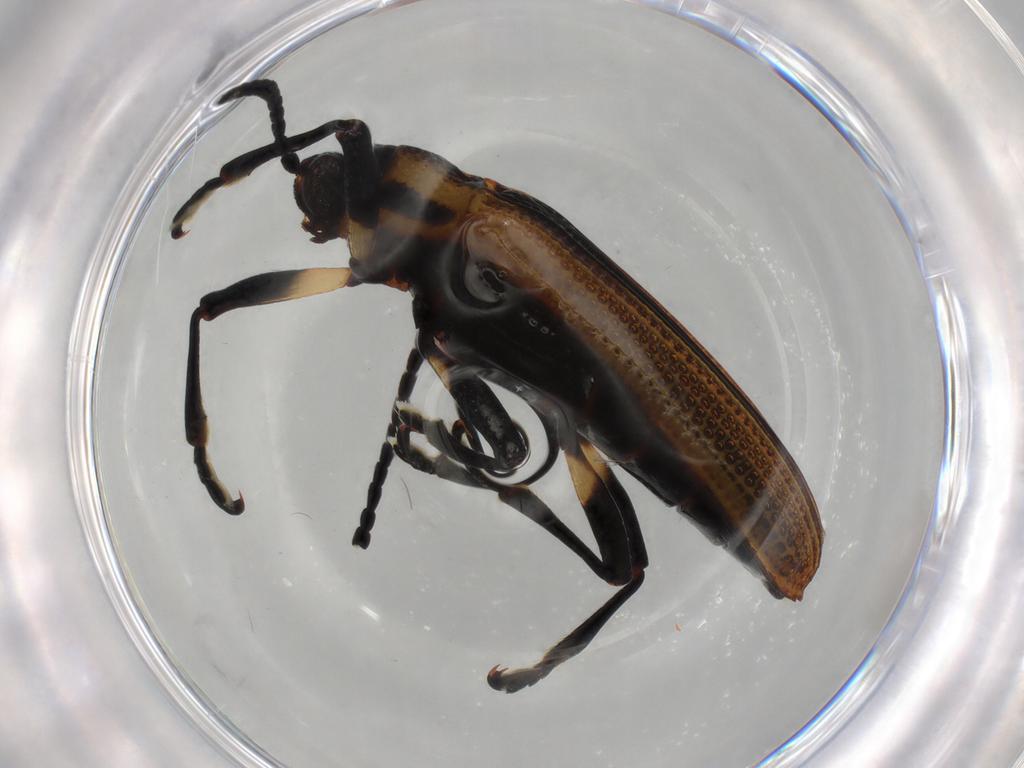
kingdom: Animalia
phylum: Arthropoda
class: Insecta
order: Coleoptera
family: Chrysomelidae
